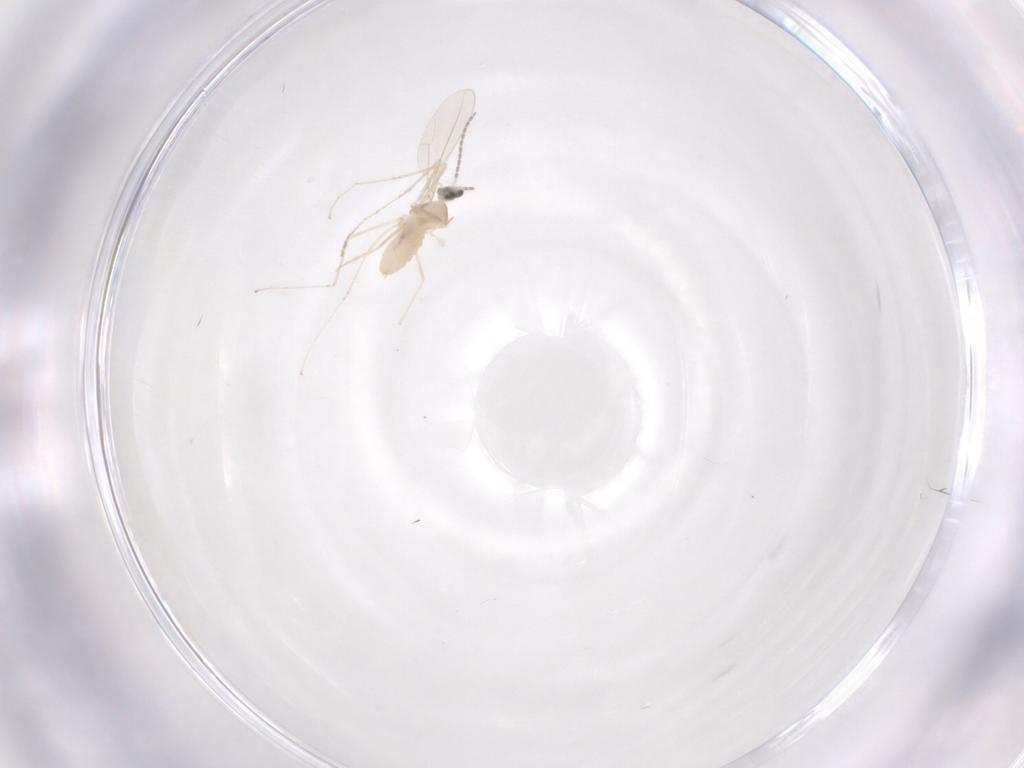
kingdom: Animalia
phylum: Arthropoda
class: Insecta
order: Diptera
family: Cecidomyiidae
